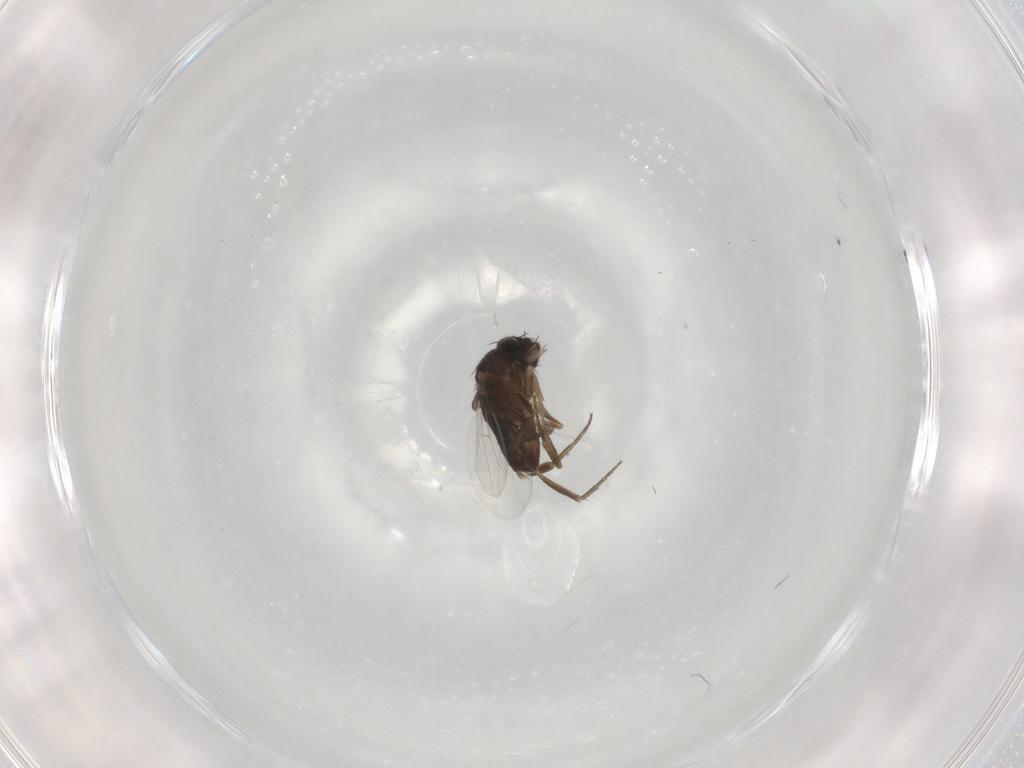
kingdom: Animalia
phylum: Arthropoda
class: Insecta
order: Diptera
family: Phoridae
